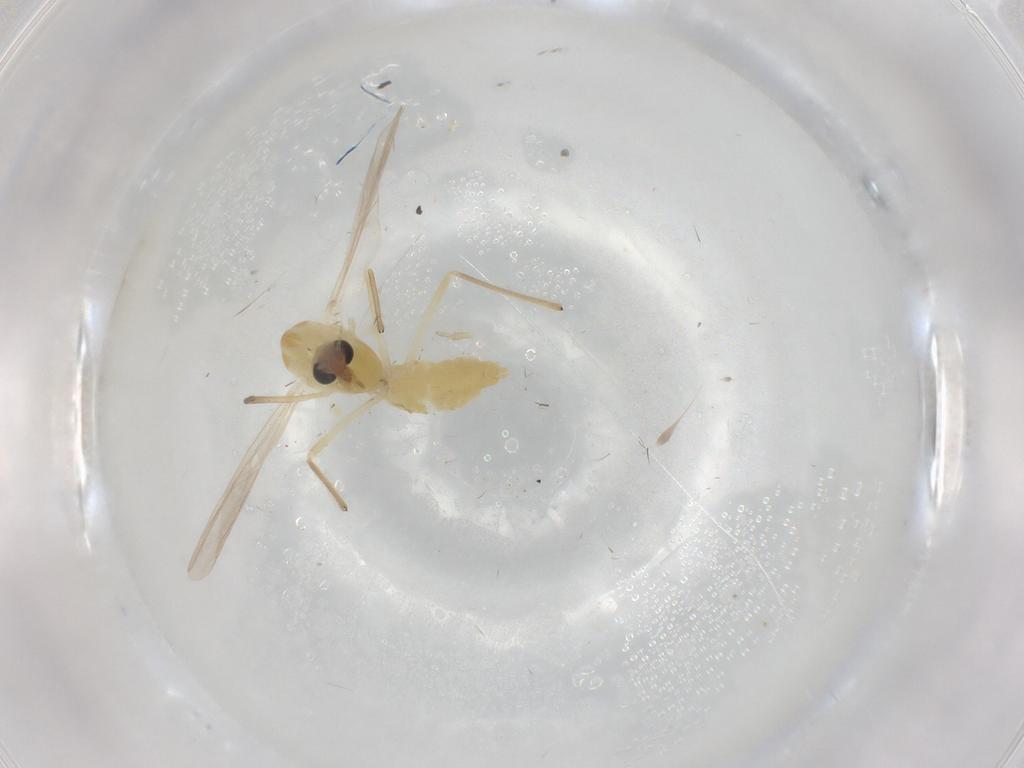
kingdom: Animalia
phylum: Arthropoda
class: Insecta
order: Diptera
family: Chironomidae
